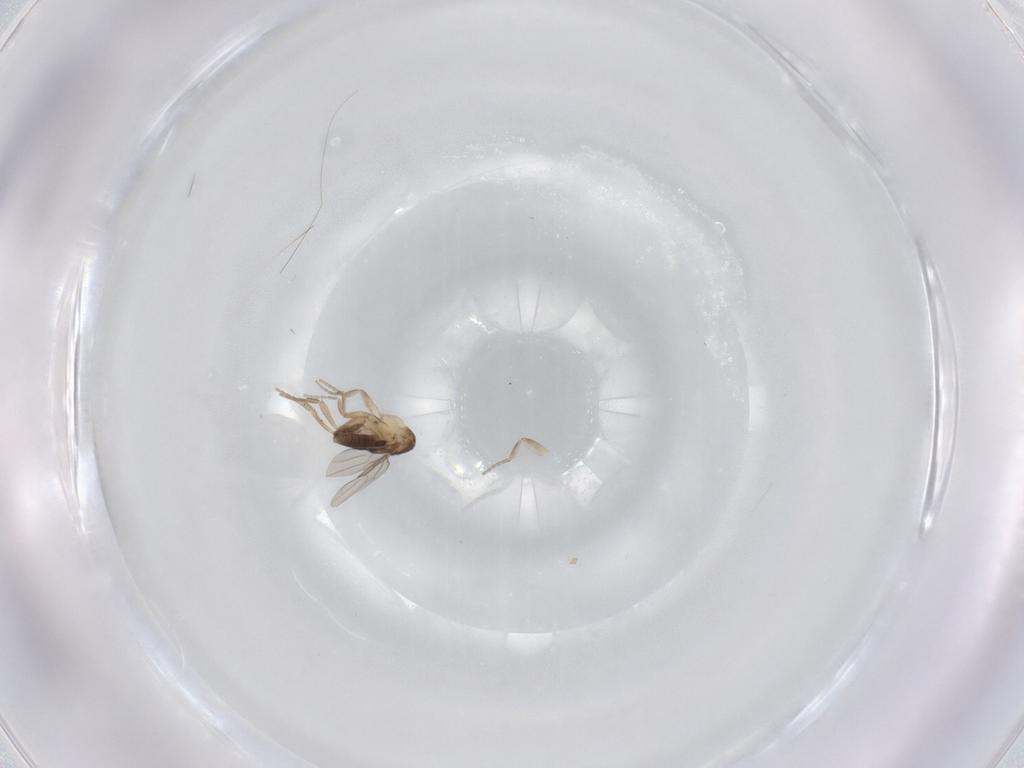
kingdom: Animalia
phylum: Arthropoda
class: Insecta
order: Diptera
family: Phoridae
